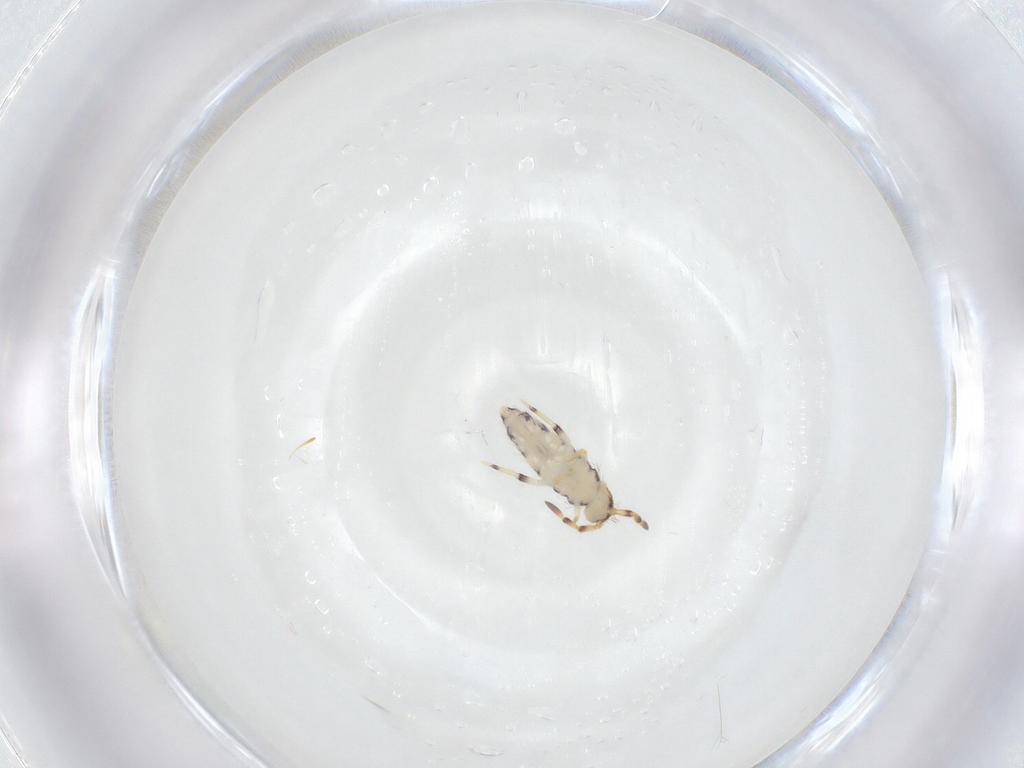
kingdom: Animalia
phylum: Arthropoda
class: Collembola
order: Entomobryomorpha
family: Isotomidae
